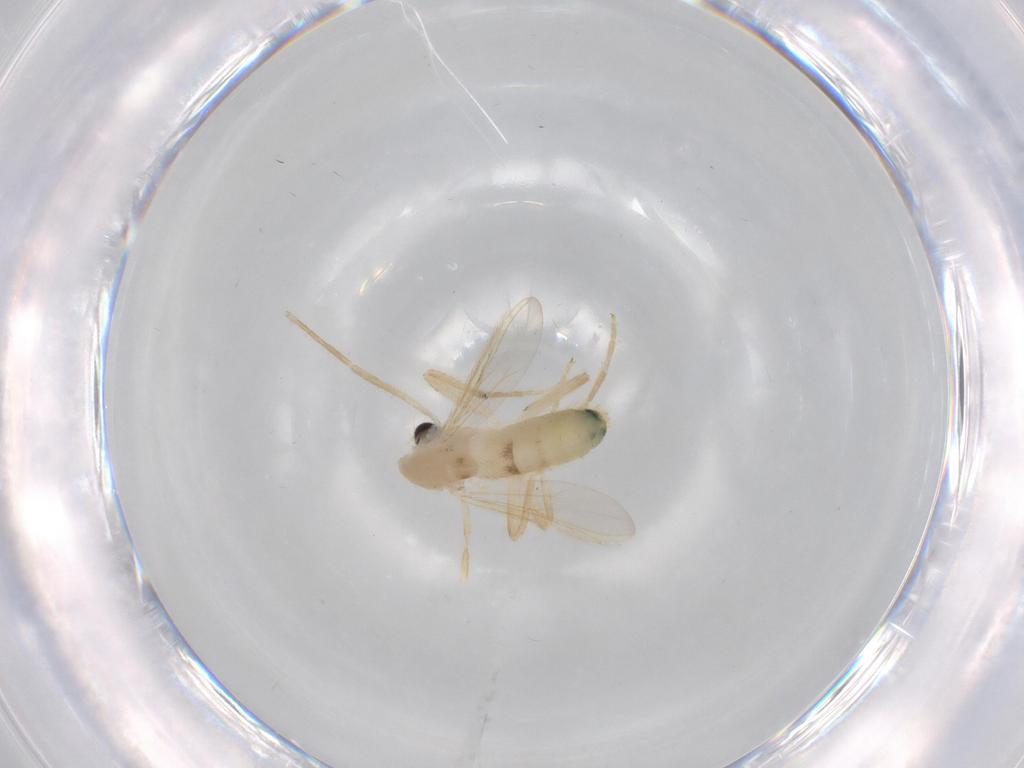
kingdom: Animalia
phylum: Arthropoda
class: Insecta
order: Diptera
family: Chironomidae
